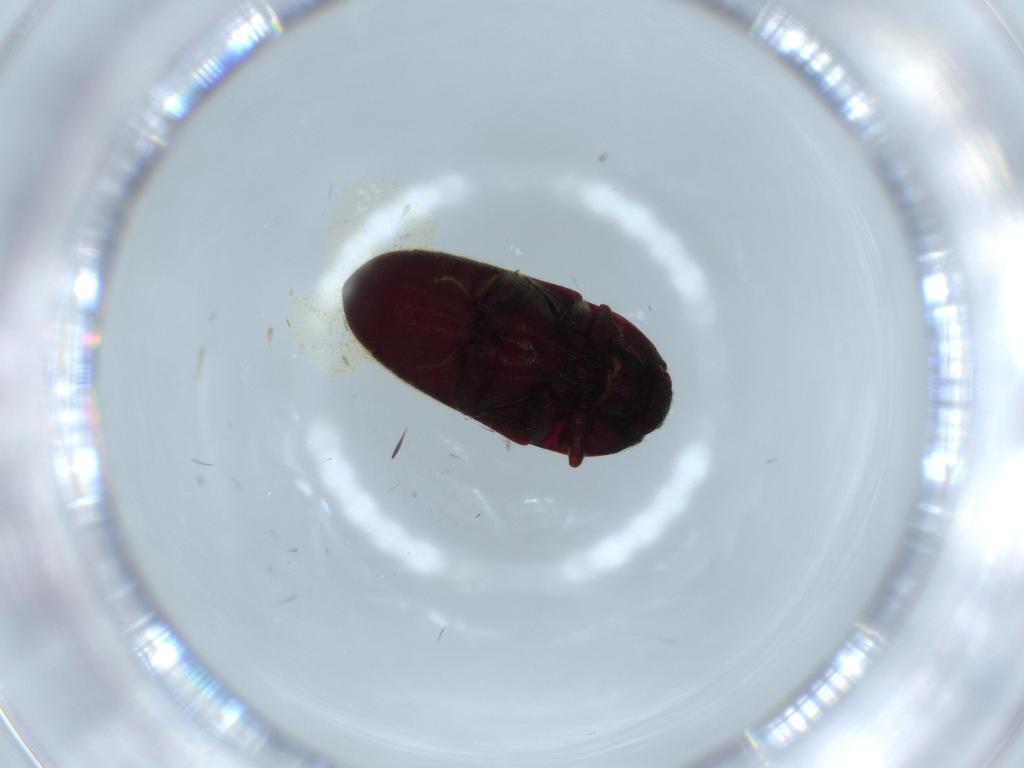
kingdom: Animalia
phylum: Arthropoda
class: Insecta
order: Coleoptera
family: Throscidae
